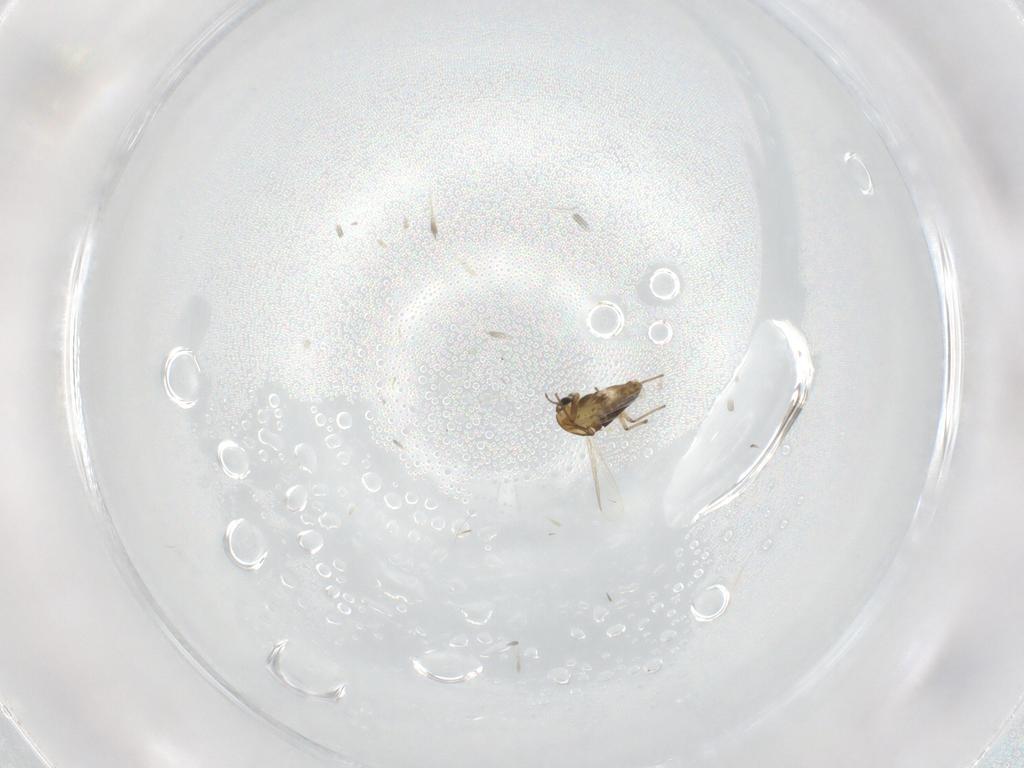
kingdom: Animalia
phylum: Arthropoda
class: Insecta
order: Diptera
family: Chironomidae
